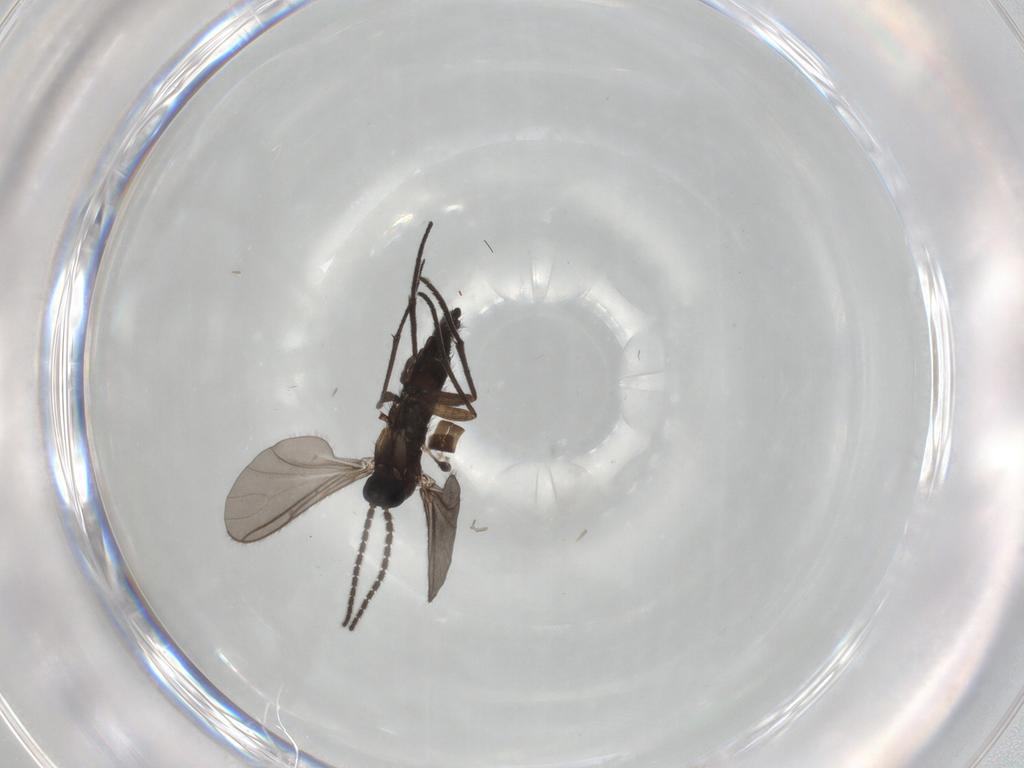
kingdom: Animalia
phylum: Arthropoda
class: Insecta
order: Diptera
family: Sciaridae
